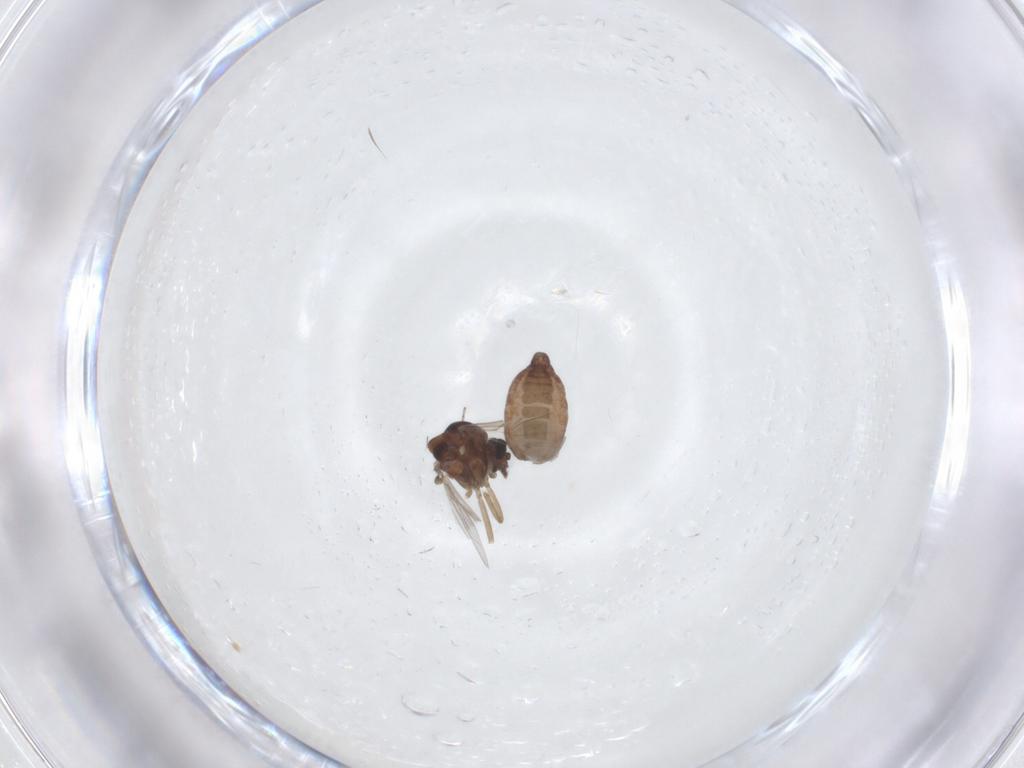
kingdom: Animalia
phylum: Arthropoda
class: Insecta
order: Diptera
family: Ceratopogonidae
